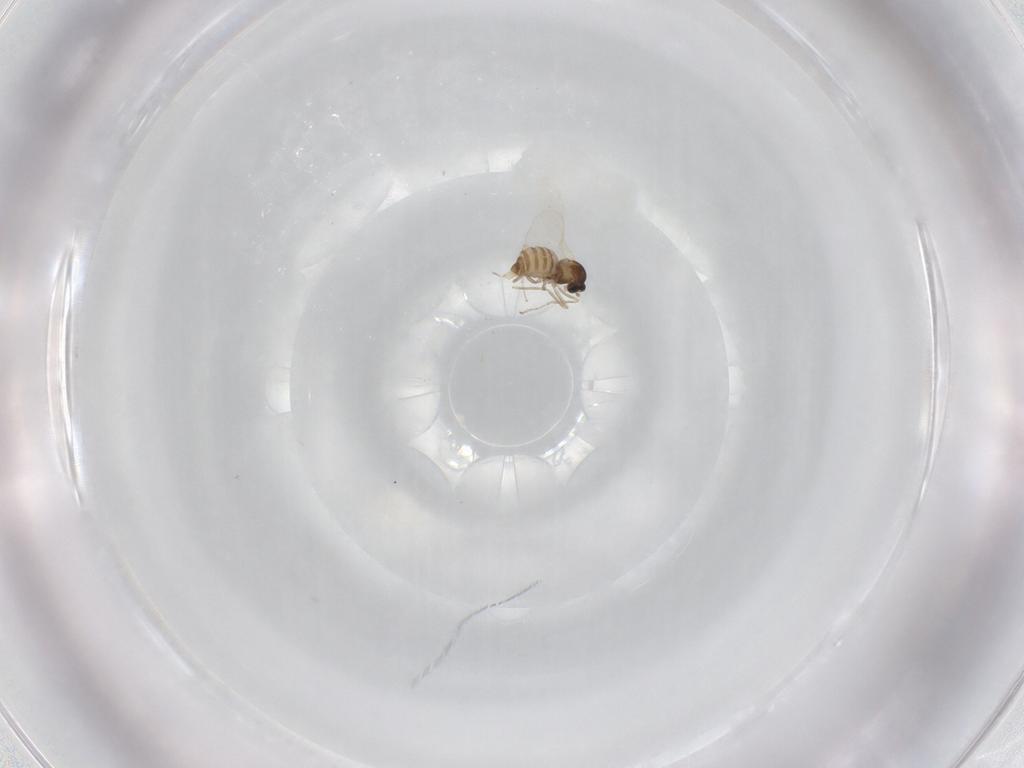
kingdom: Animalia
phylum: Arthropoda
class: Insecta
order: Diptera
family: Cecidomyiidae
